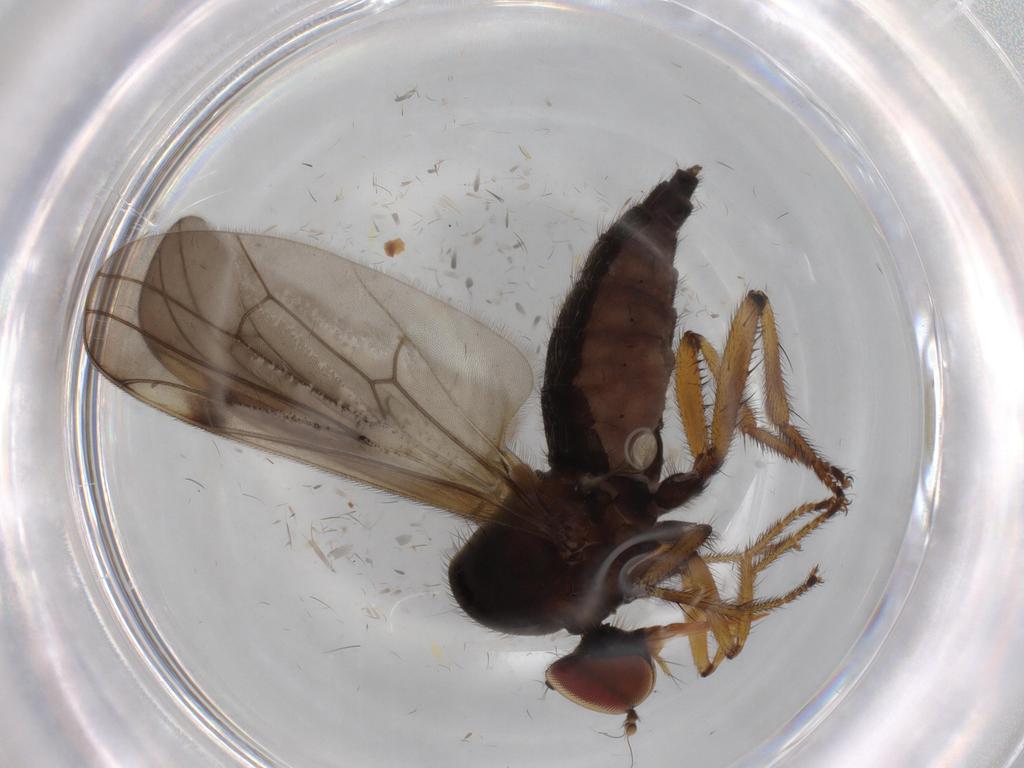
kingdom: Animalia
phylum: Arthropoda
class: Insecta
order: Diptera
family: Hybotidae
